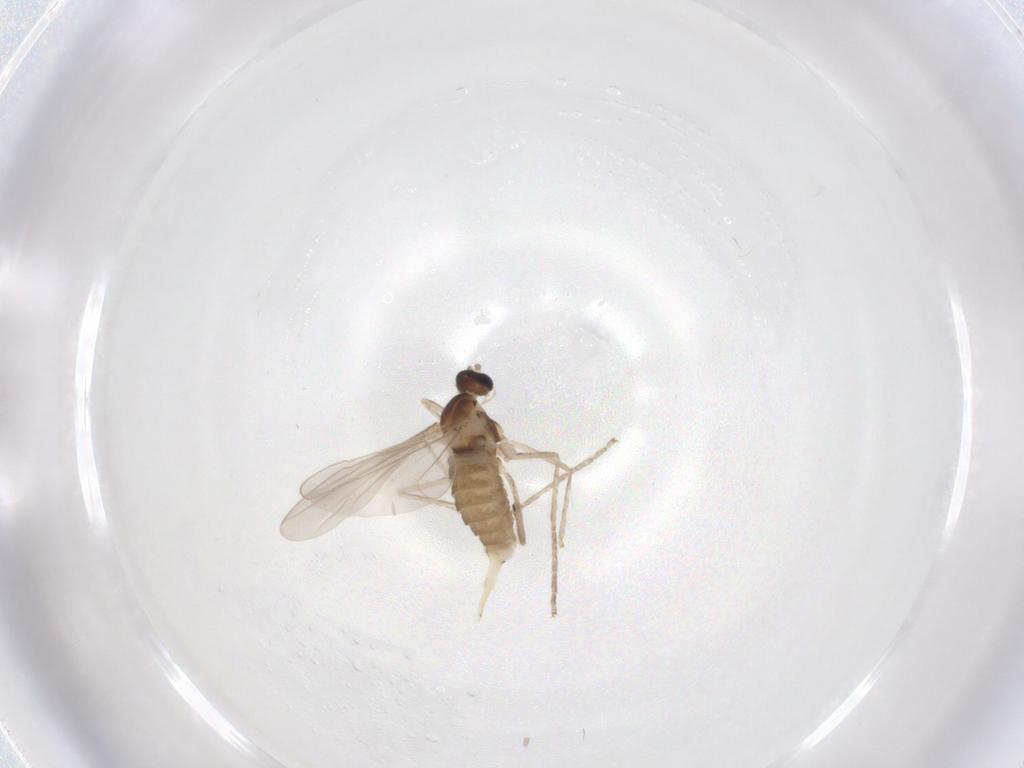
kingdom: Animalia
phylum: Arthropoda
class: Insecta
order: Diptera
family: Cecidomyiidae
